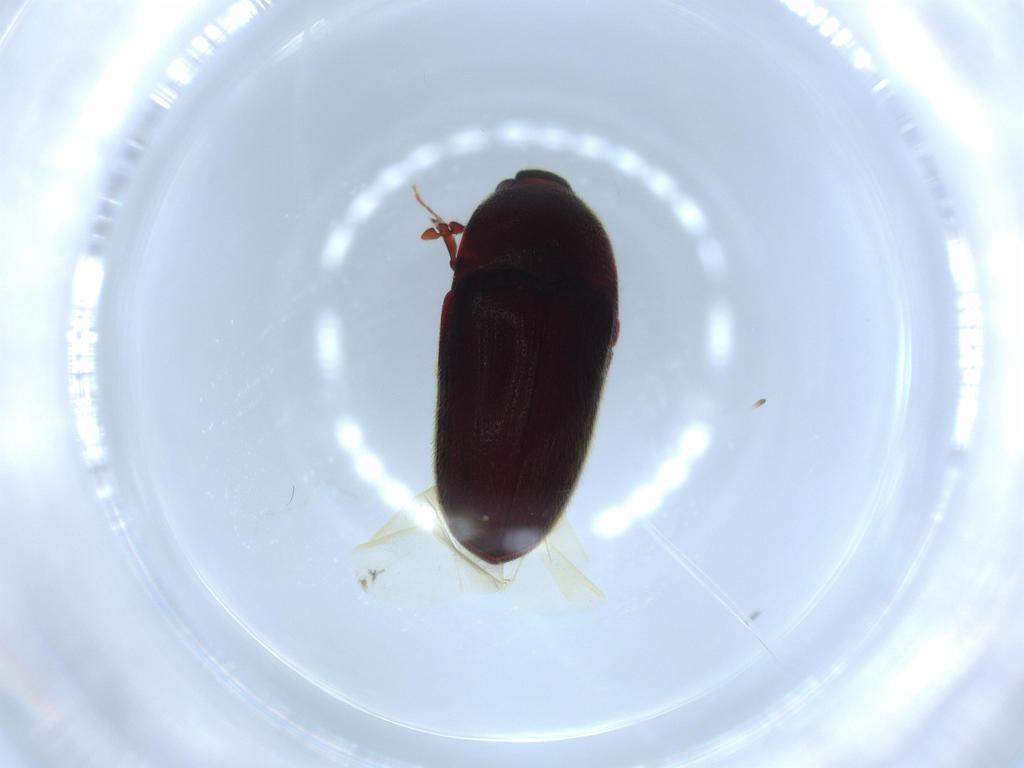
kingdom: Animalia
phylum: Arthropoda
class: Insecta
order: Coleoptera
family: Throscidae
